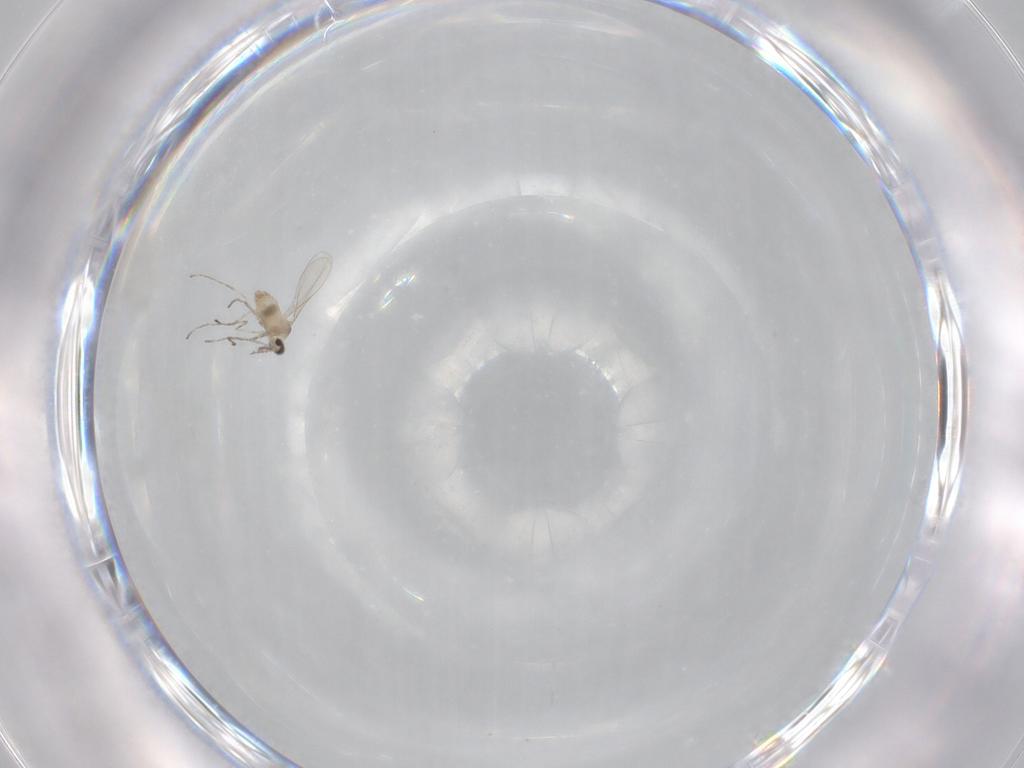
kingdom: Animalia
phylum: Arthropoda
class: Insecta
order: Diptera
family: Cecidomyiidae
